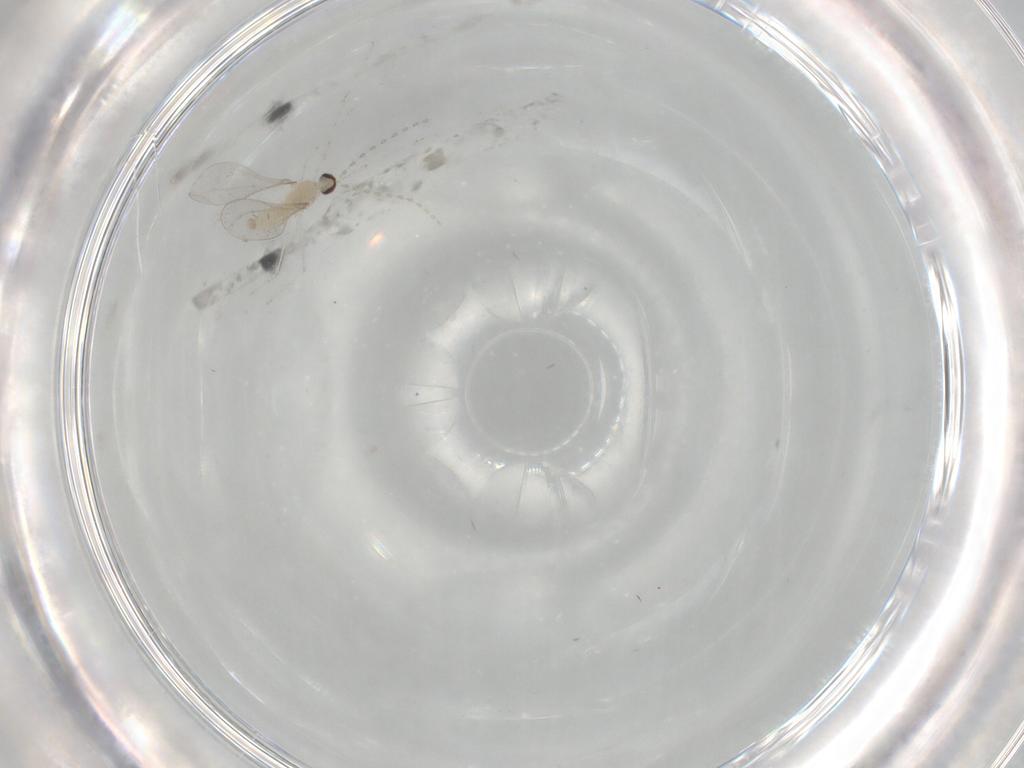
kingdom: Animalia
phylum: Arthropoda
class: Insecta
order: Diptera
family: Cecidomyiidae
